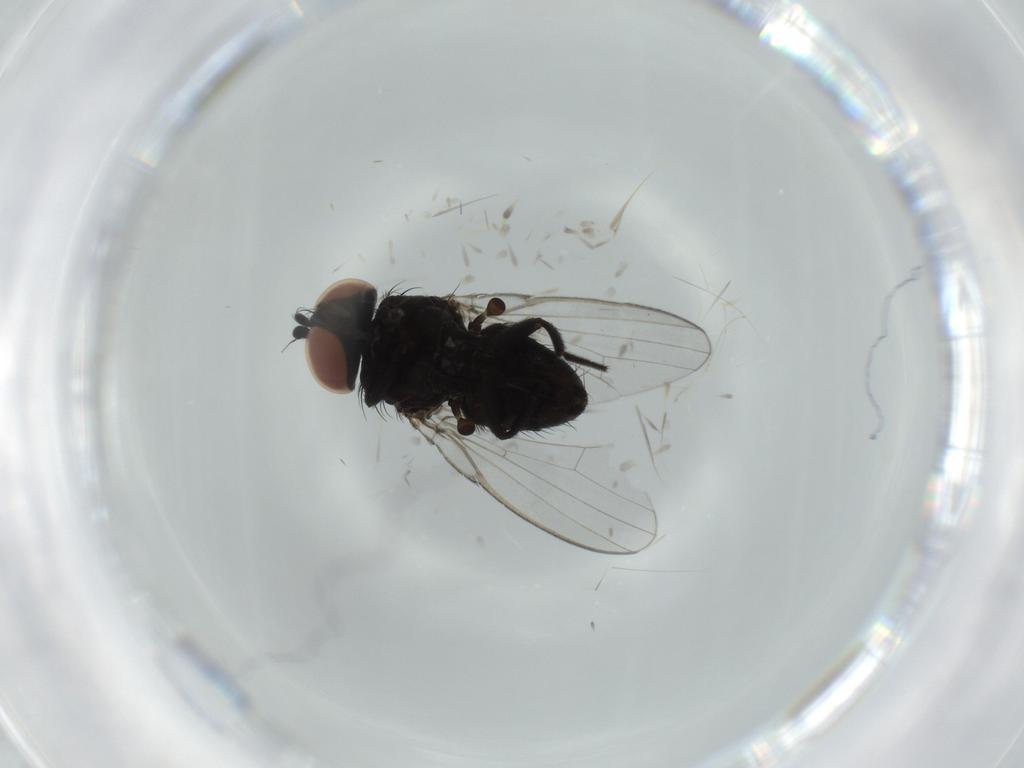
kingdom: Animalia
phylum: Arthropoda
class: Insecta
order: Diptera
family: Milichiidae
